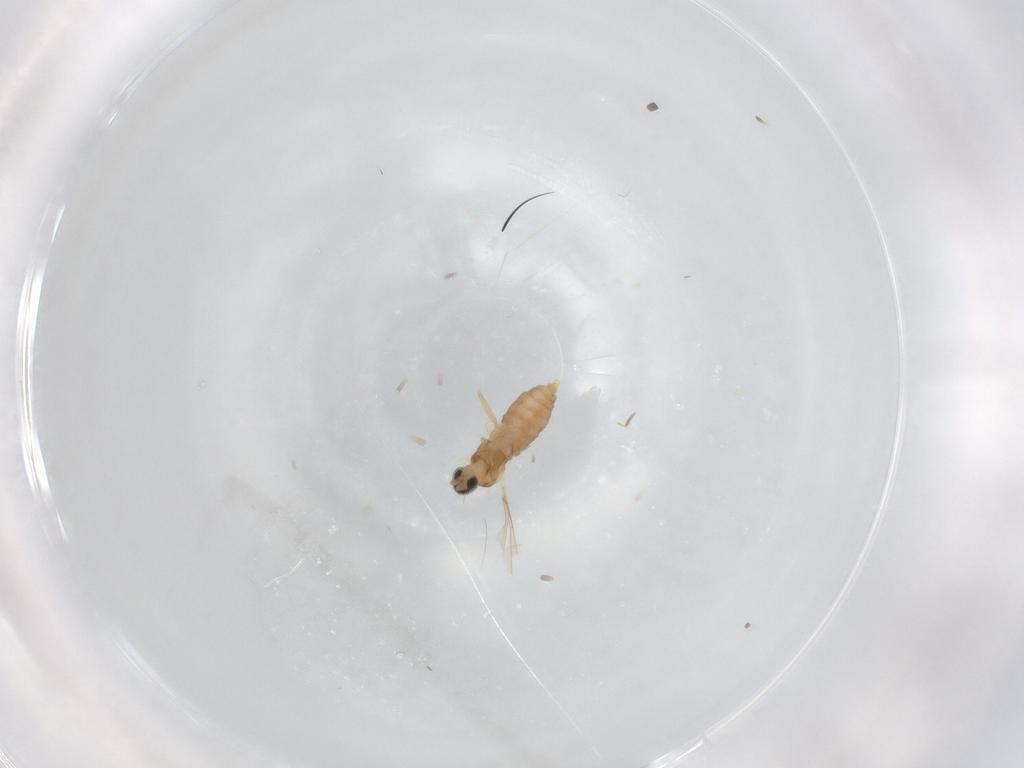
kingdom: Animalia
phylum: Arthropoda
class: Insecta
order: Diptera
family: Cecidomyiidae
